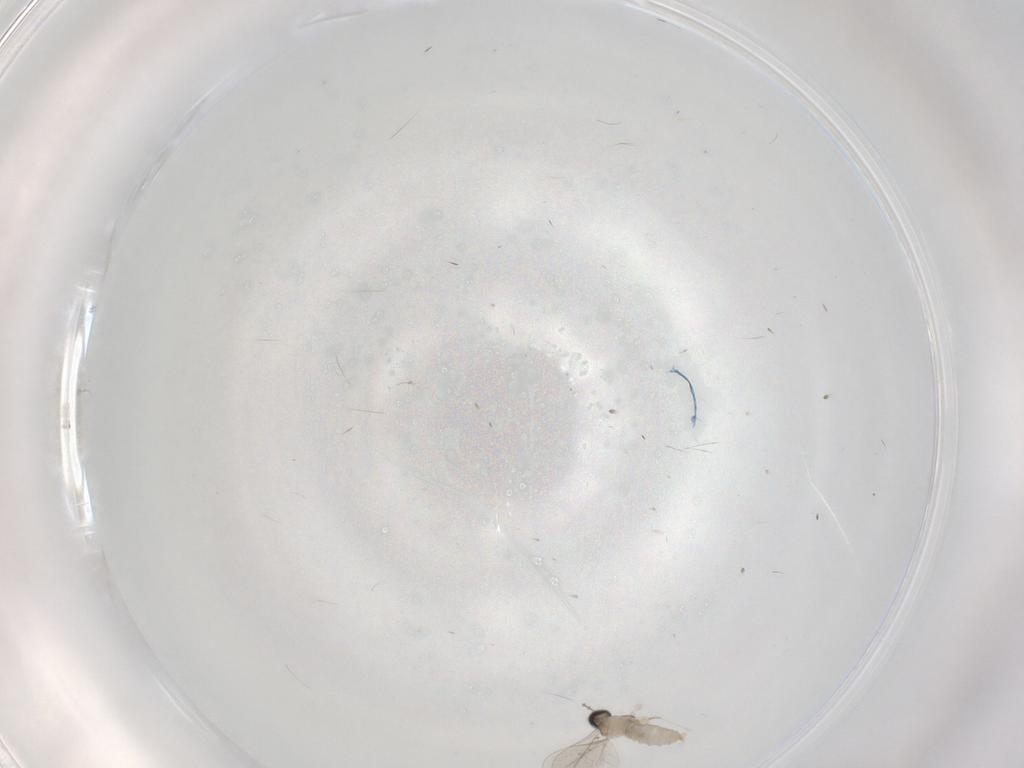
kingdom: Animalia
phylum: Arthropoda
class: Insecta
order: Diptera
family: Cecidomyiidae
